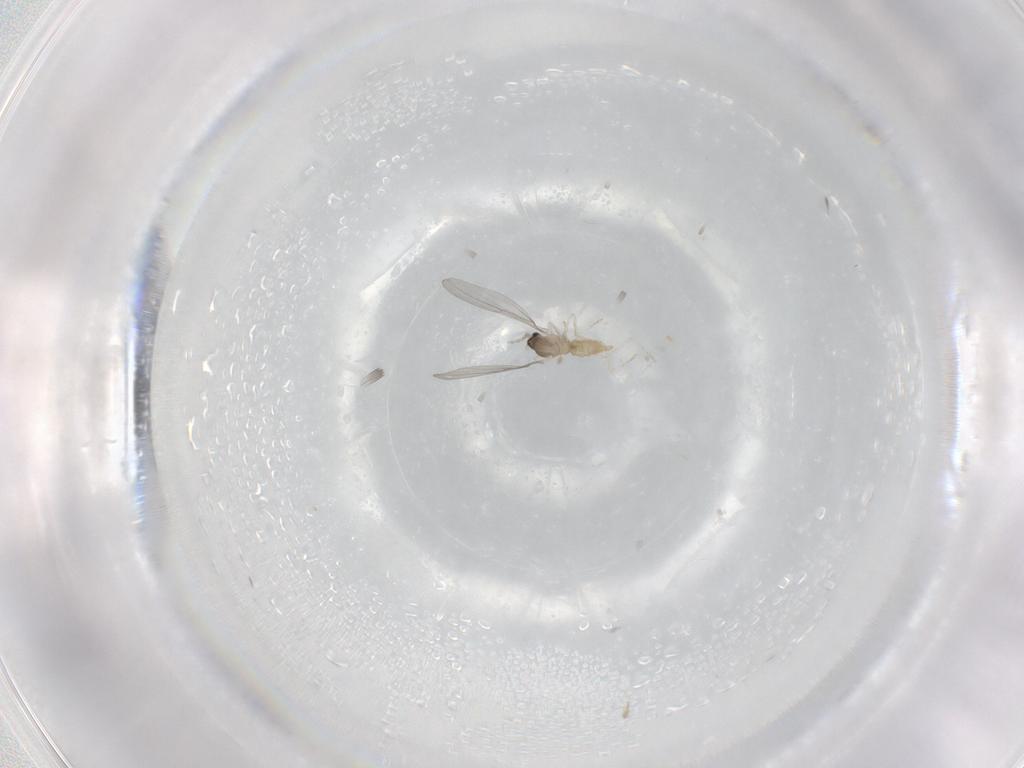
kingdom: Animalia
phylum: Arthropoda
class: Insecta
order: Diptera
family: Cecidomyiidae
